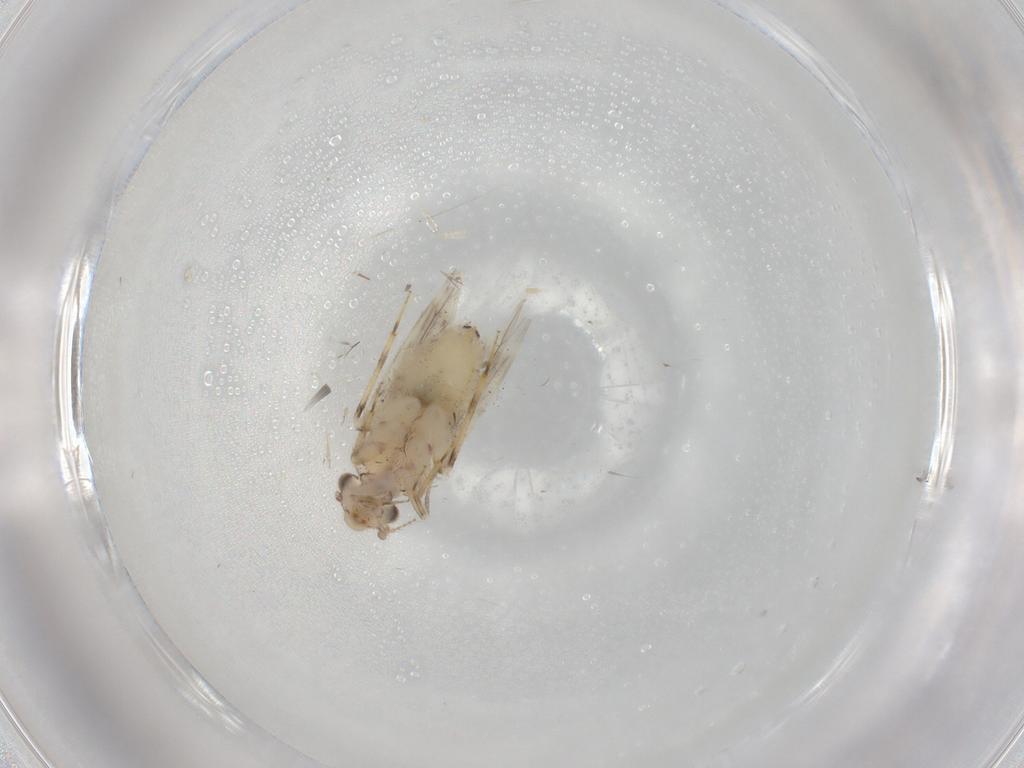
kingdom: Animalia
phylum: Arthropoda
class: Insecta
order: Psocodea
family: Lepidopsocidae
